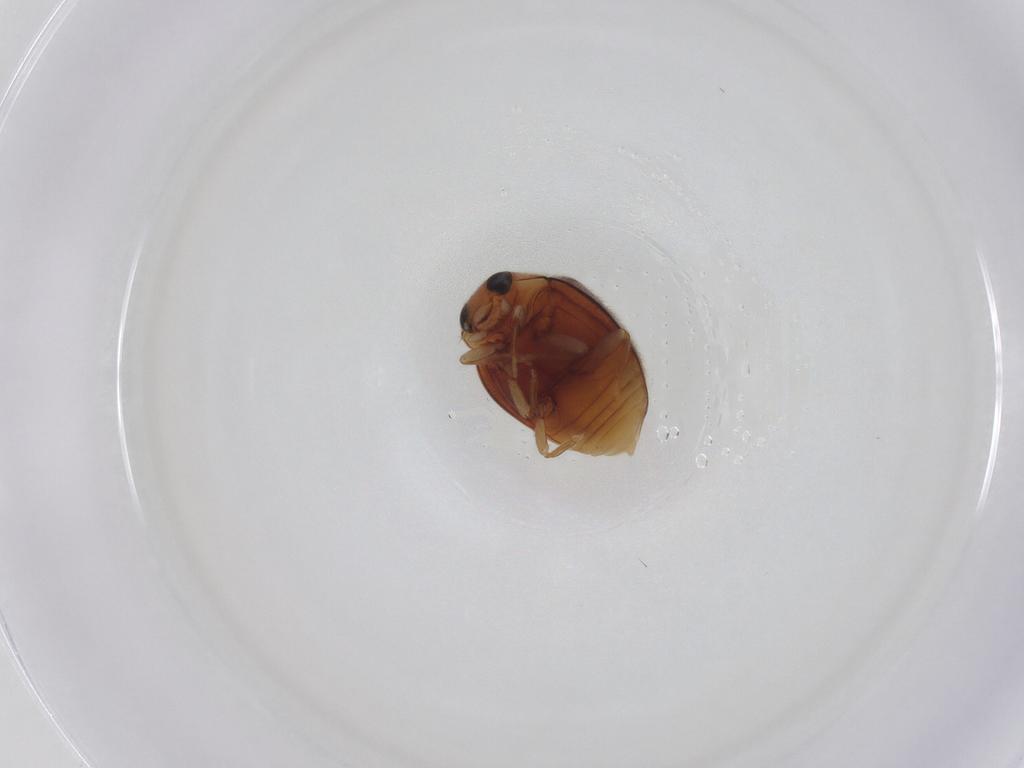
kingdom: Animalia
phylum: Arthropoda
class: Insecta
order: Coleoptera
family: Coccinellidae
